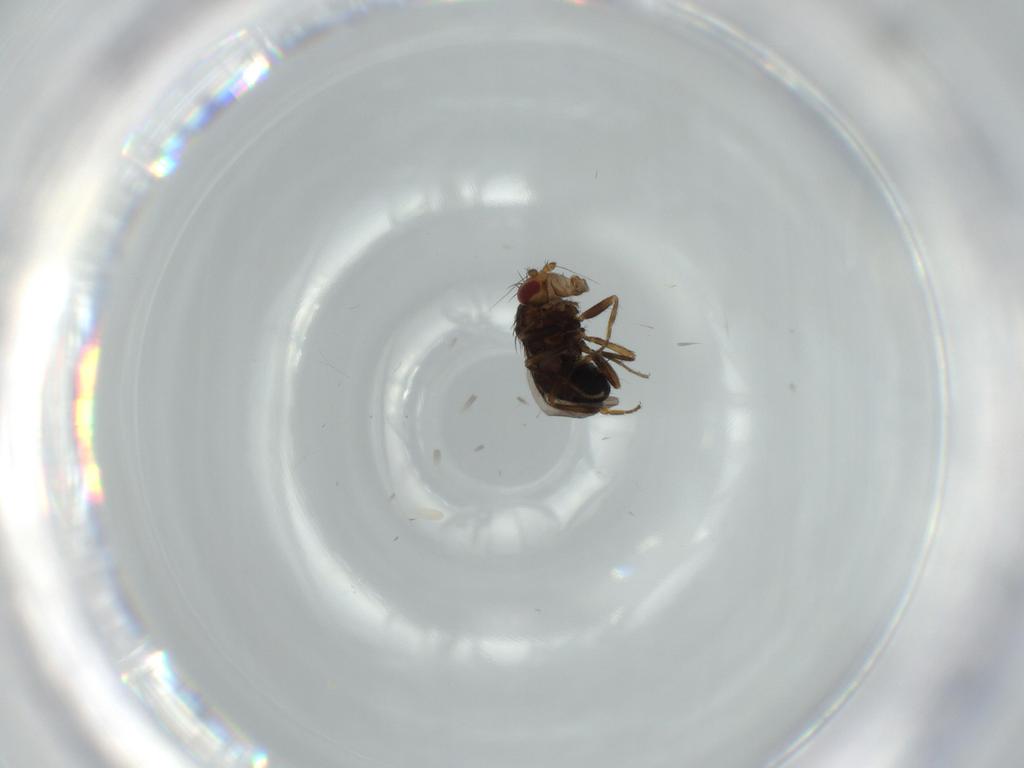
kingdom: Animalia
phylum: Arthropoda
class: Insecta
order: Diptera
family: Sphaeroceridae
